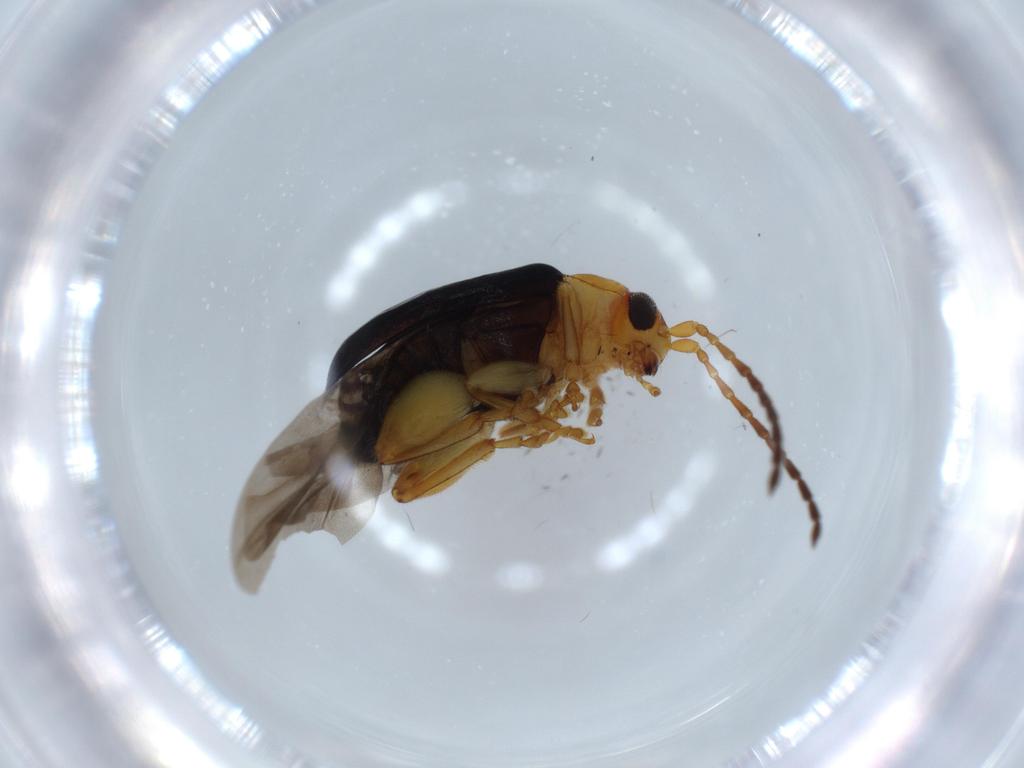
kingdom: Animalia
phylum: Arthropoda
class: Insecta
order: Coleoptera
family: Chrysomelidae
